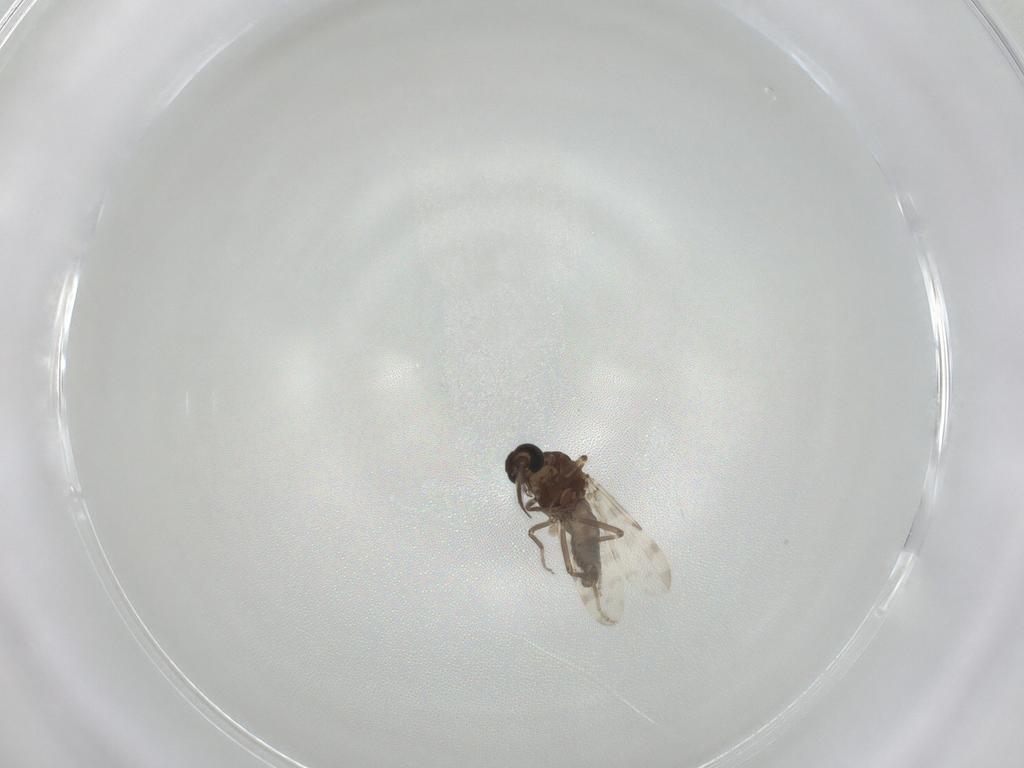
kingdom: Animalia
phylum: Arthropoda
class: Insecta
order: Diptera
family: Ceratopogonidae
